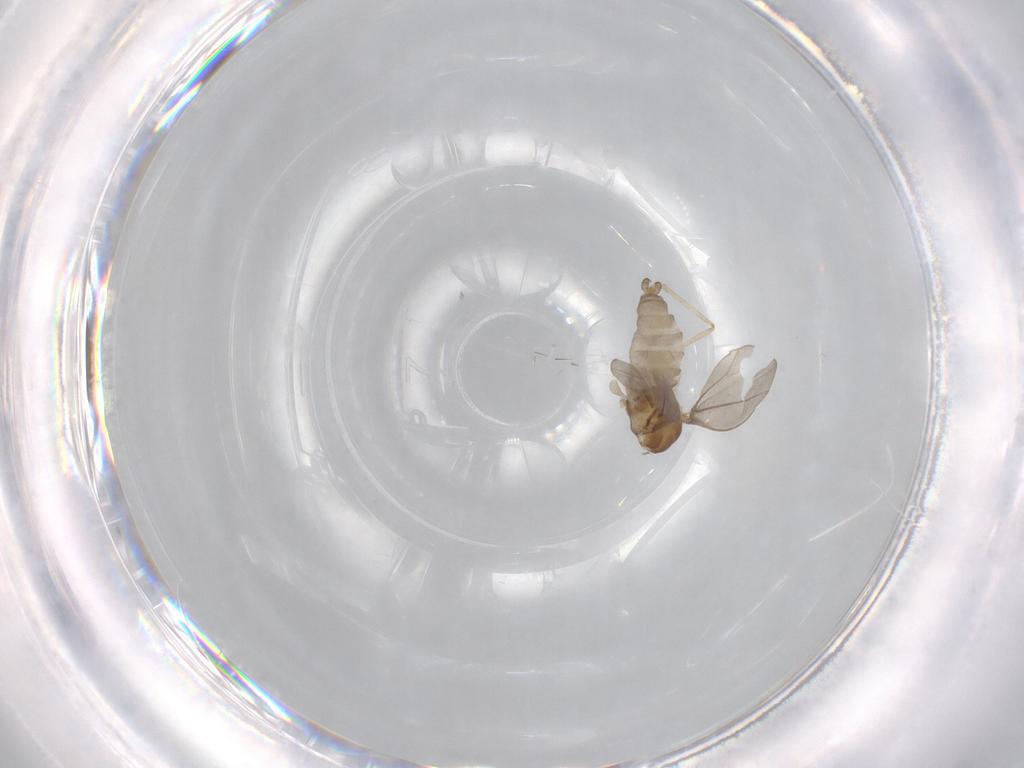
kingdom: Animalia
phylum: Arthropoda
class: Insecta
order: Diptera
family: Cecidomyiidae
